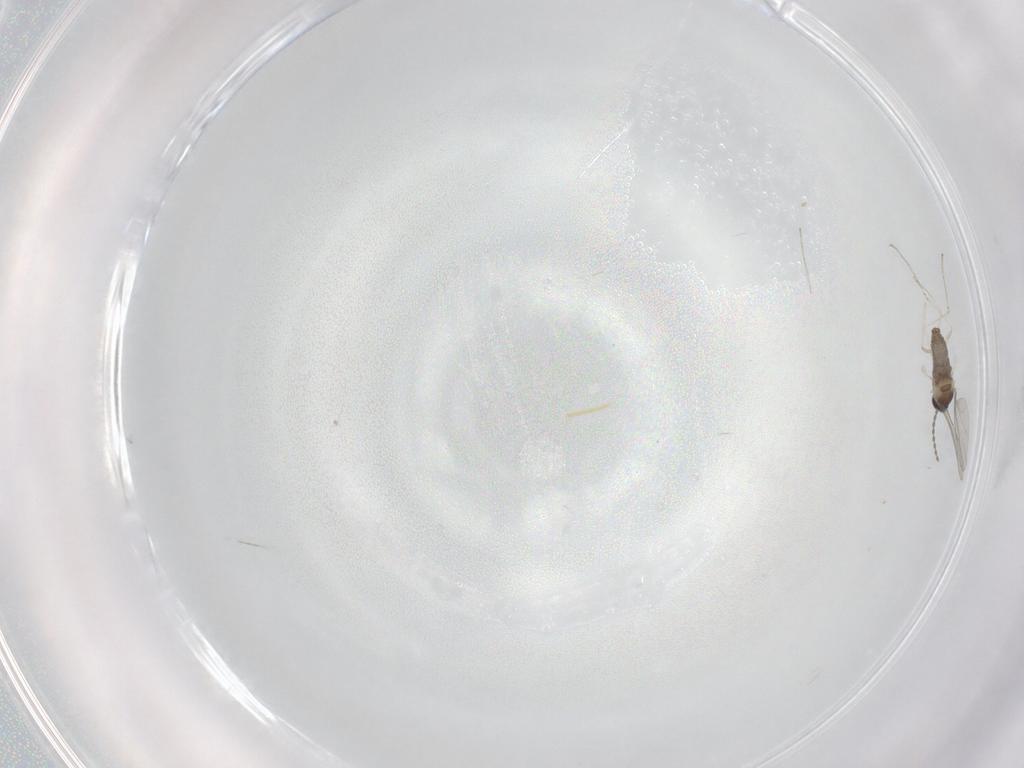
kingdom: Animalia
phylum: Arthropoda
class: Insecta
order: Diptera
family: Cecidomyiidae
